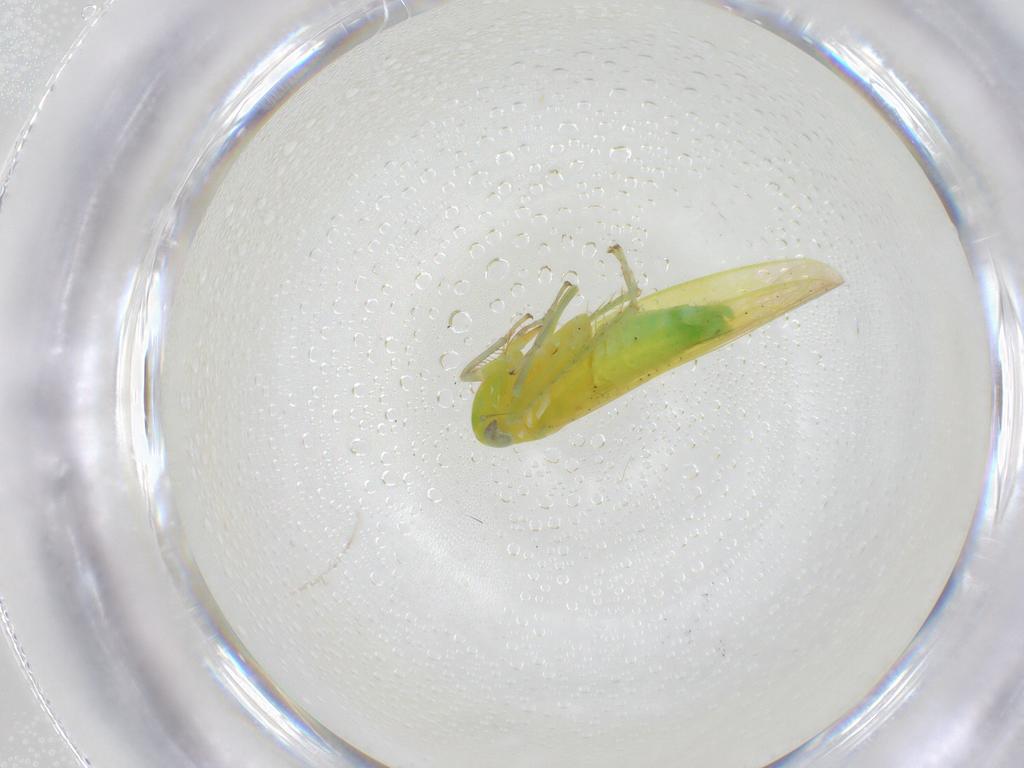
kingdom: Animalia
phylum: Arthropoda
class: Insecta
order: Hemiptera
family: Cicadellidae
